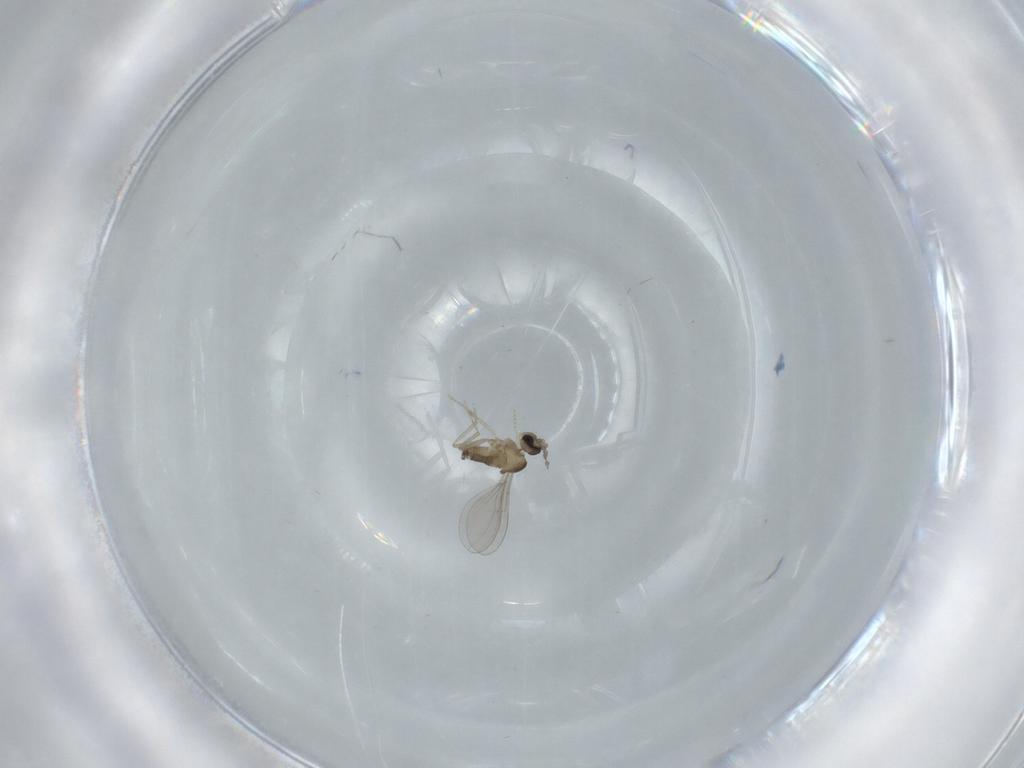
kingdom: Animalia
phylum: Arthropoda
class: Insecta
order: Diptera
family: Cecidomyiidae
